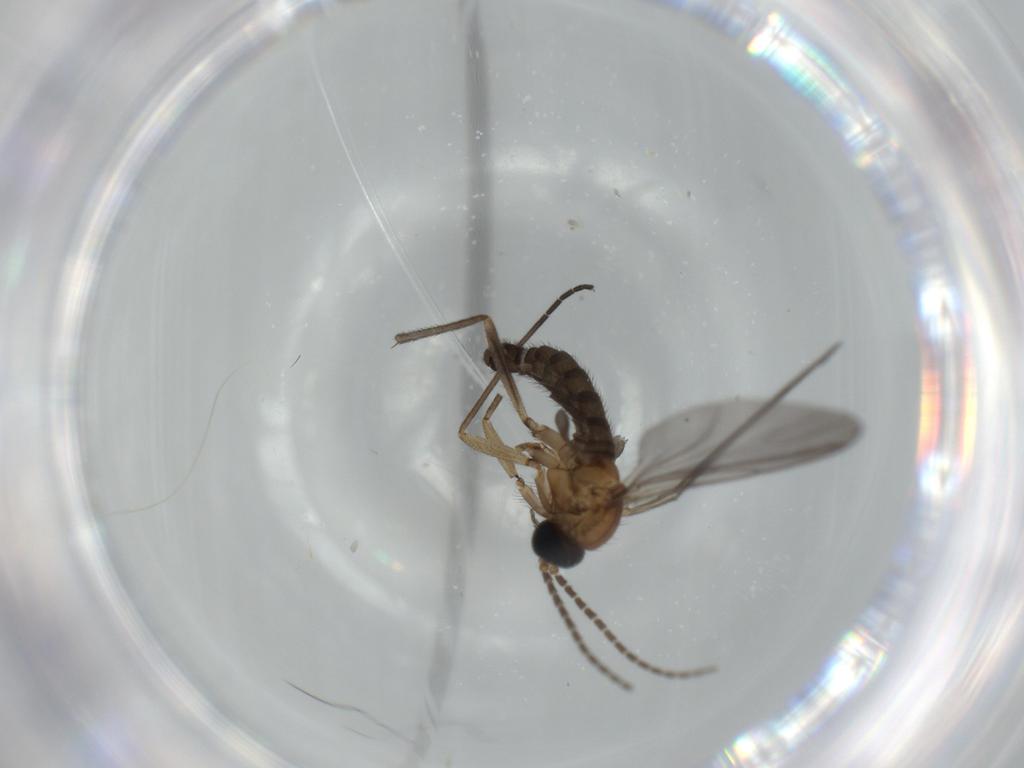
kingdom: Animalia
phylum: Arthropoda
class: Insecta
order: Diptera
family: Sciaridae
